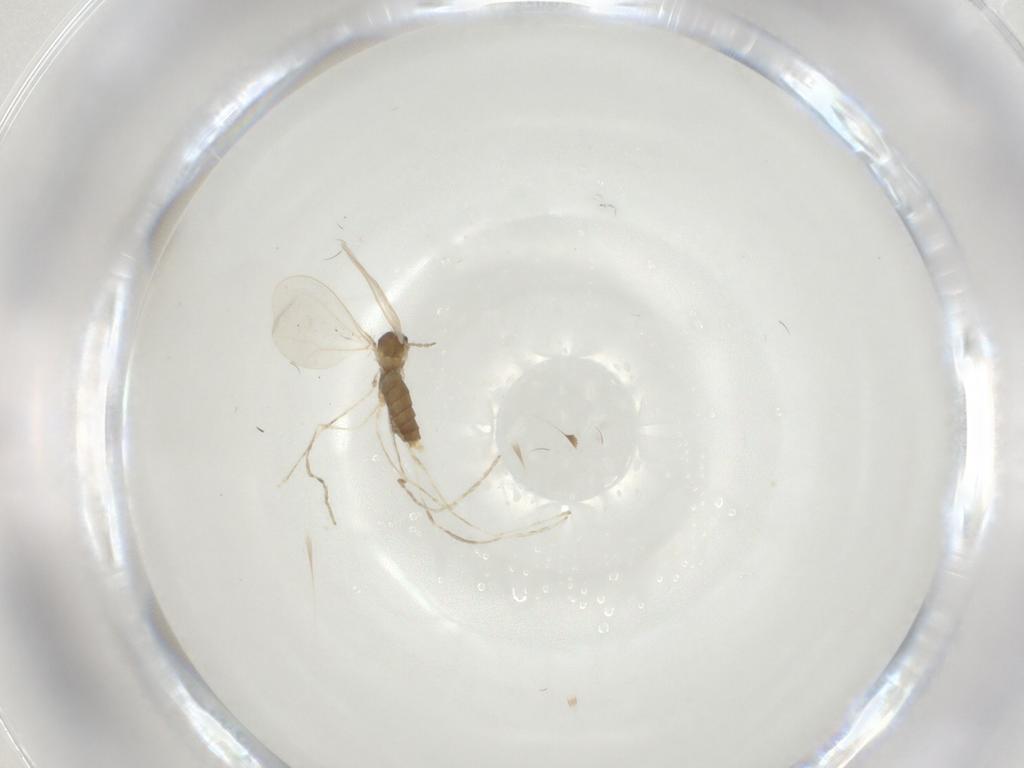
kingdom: Animalia
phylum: Arthropoda
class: Insecta
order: Diptera
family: Cecidomyiidae
